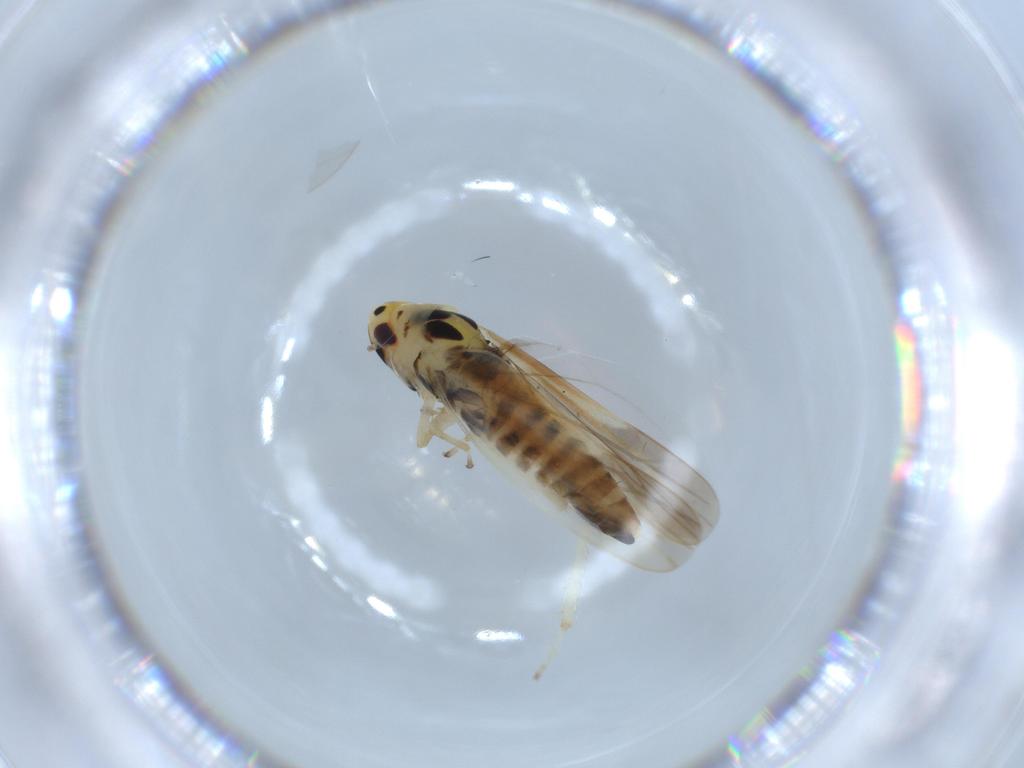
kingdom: Animalia
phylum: Arthropoda
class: Insecta
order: Hemiptera
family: Cicadellidae
